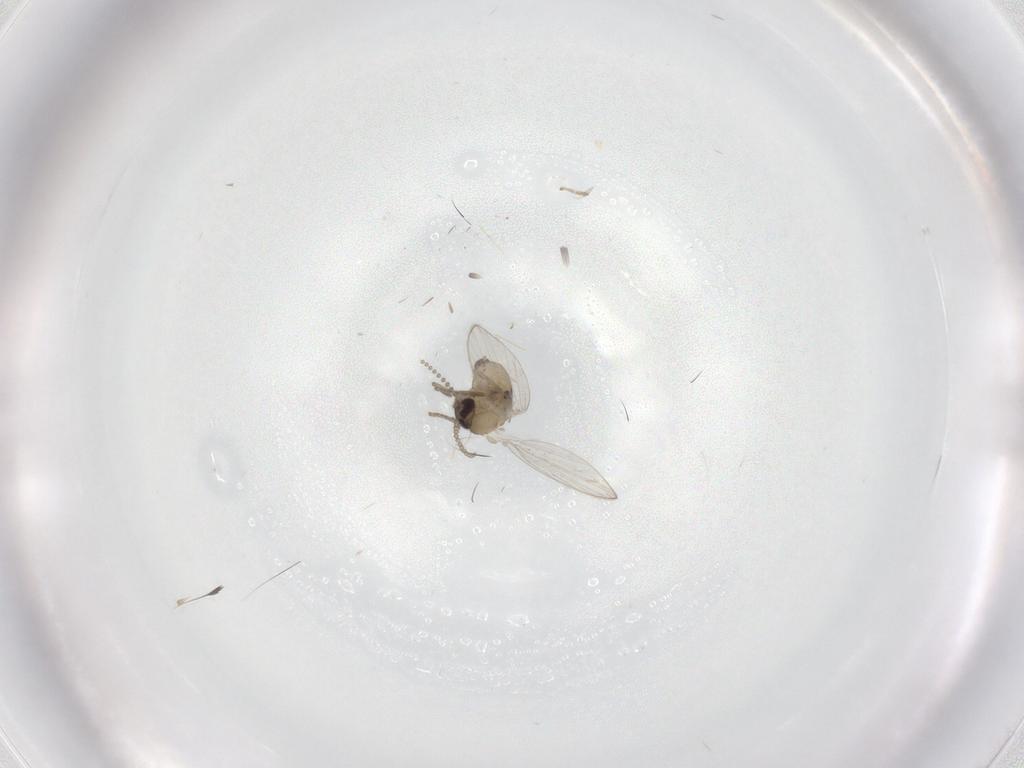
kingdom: Animalia
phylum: Arthropoda
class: Insecta
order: Diptera
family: Psychodidae
